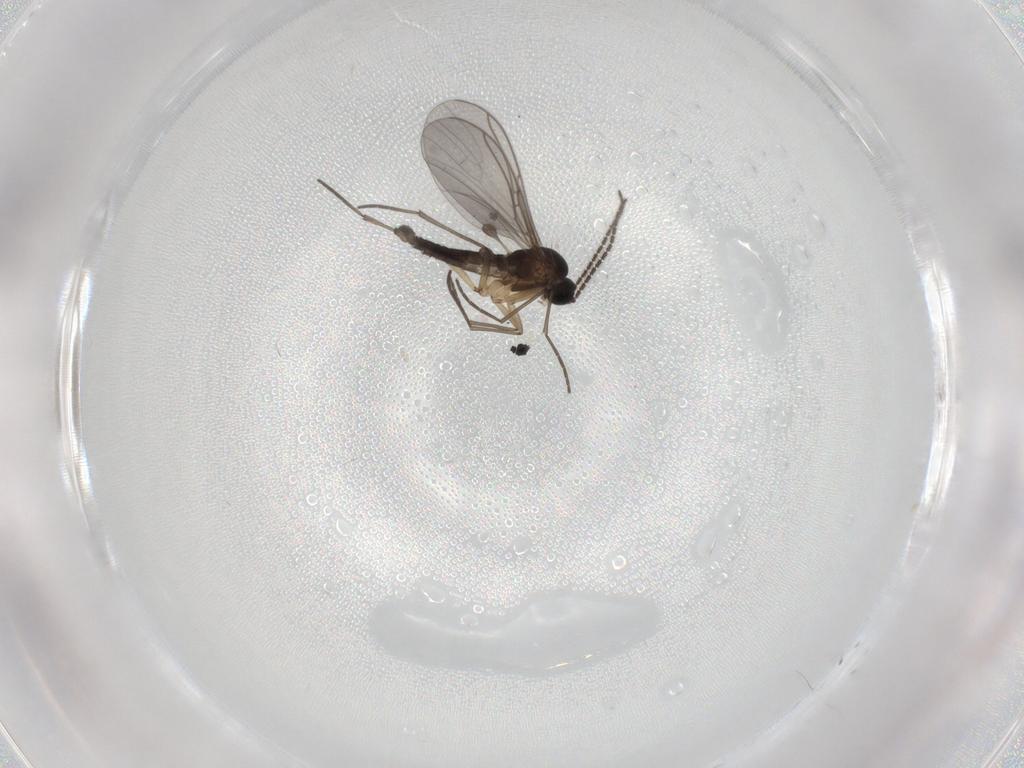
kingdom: Animalia
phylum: Arthropoda
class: Insecta
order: Diptera
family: Sciaridae
